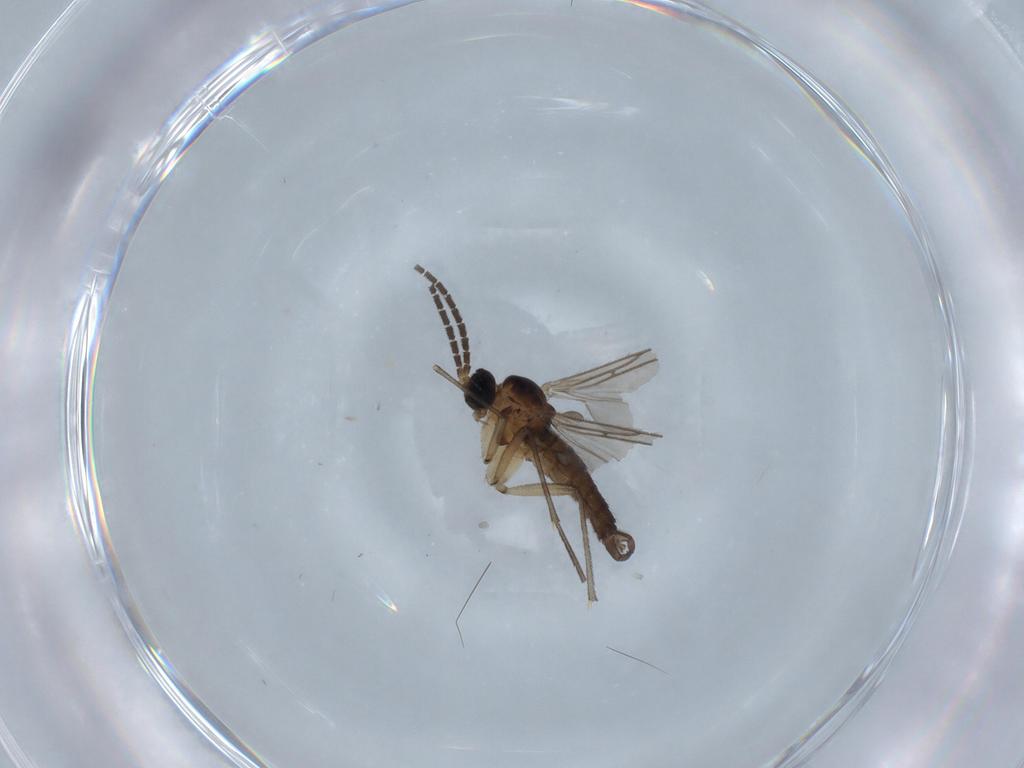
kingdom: Animalia
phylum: Arthropoda
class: Insecta
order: Diptera
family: Sciaridae
